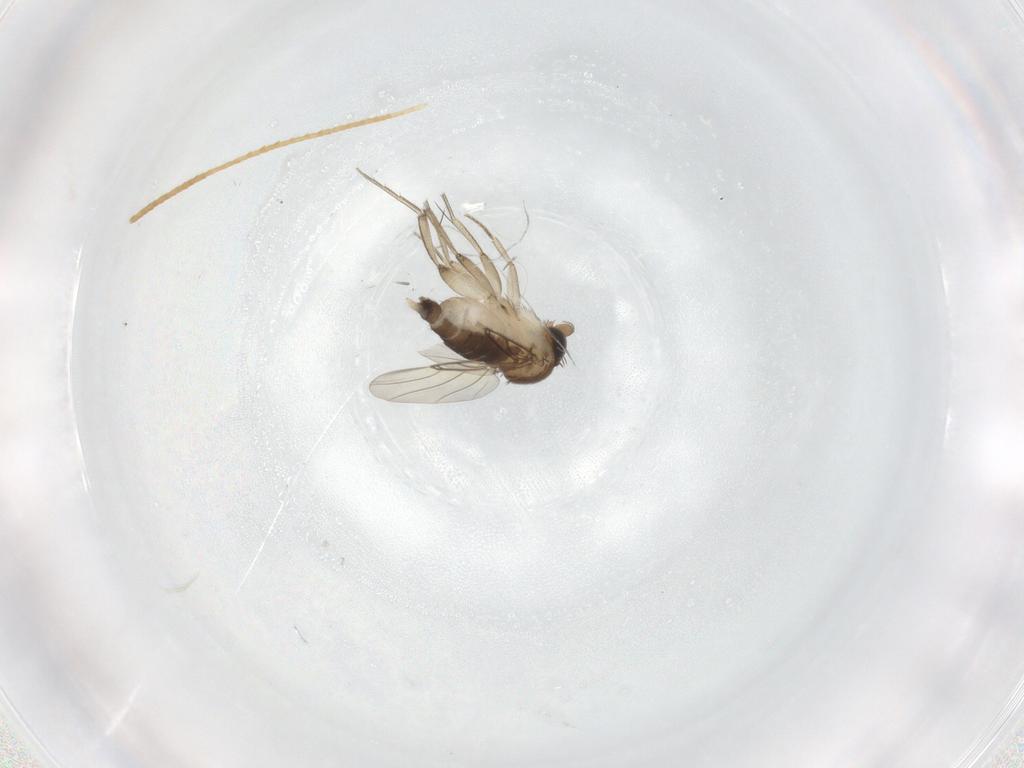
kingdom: Animalia
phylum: Arthropoda
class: Insecta
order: Diptera
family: Phoridae
